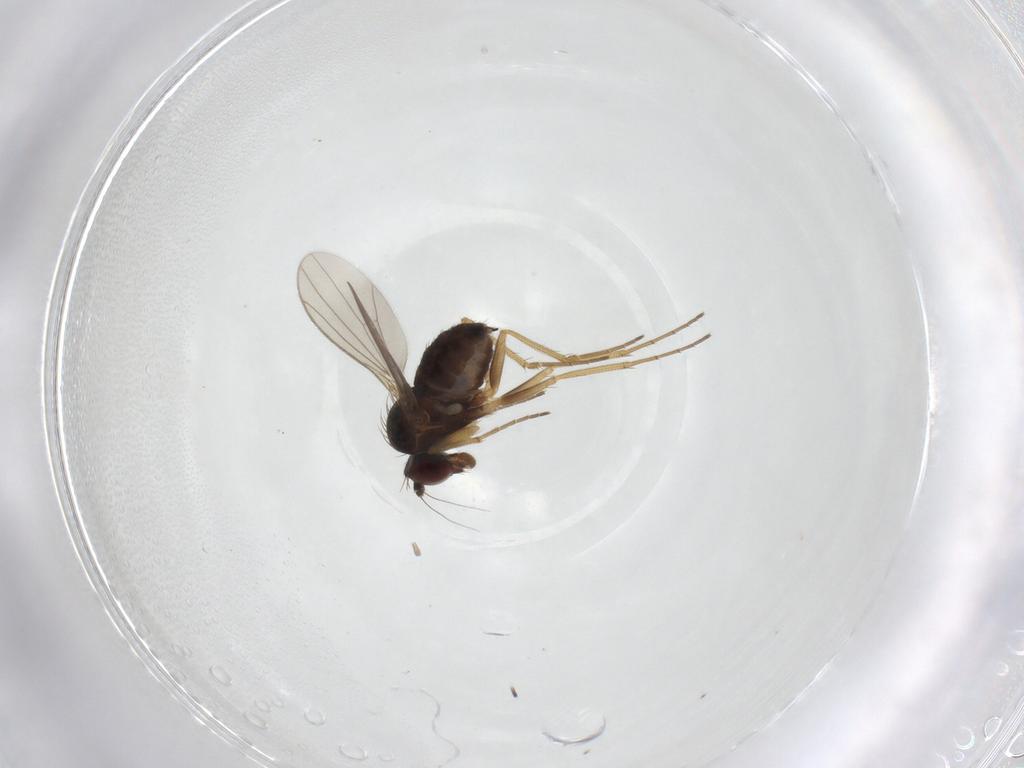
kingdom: Animalia
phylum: Arthropoda
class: Insecta
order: Diptera
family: Dolichopodidae
